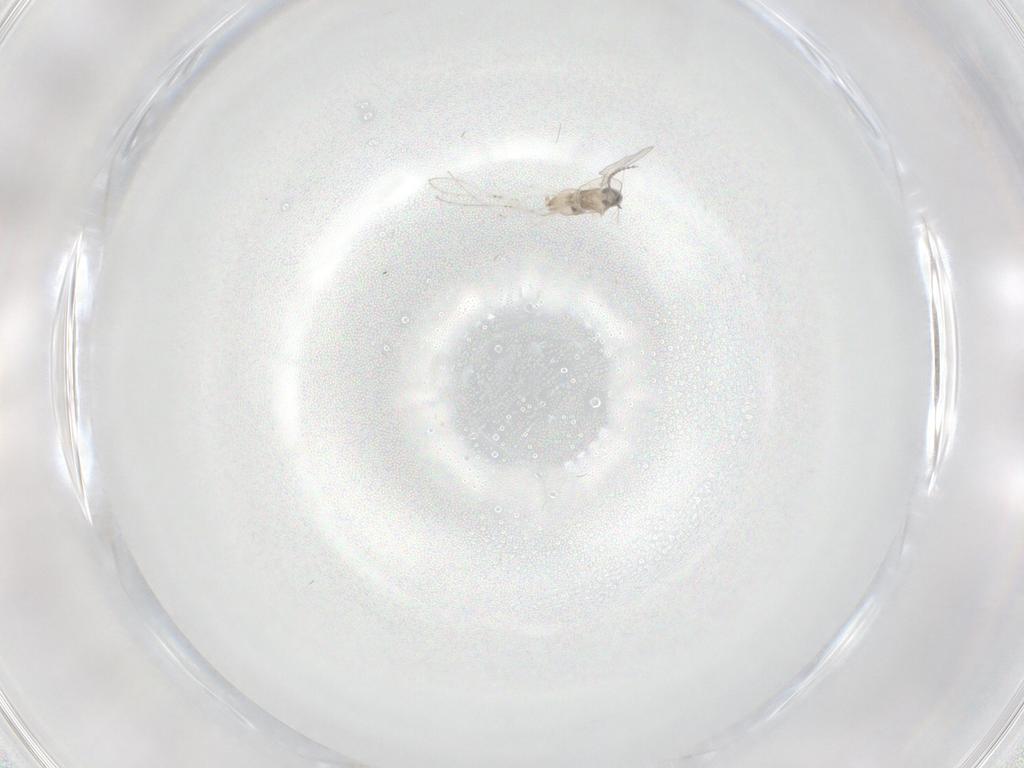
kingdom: Animalia
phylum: Arthropoda
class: Insecta
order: Diptera
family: Cecidomyiidae
